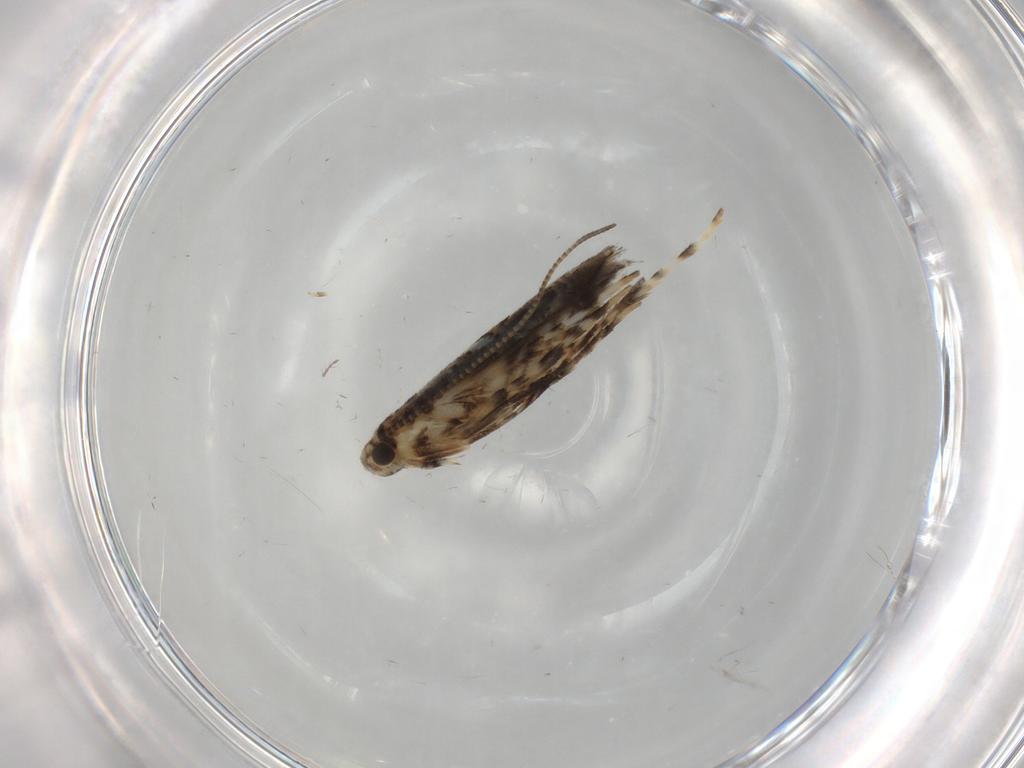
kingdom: Animalia
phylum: Arthropoda
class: Insecta
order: Lepidoptera
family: Gracillariidae
